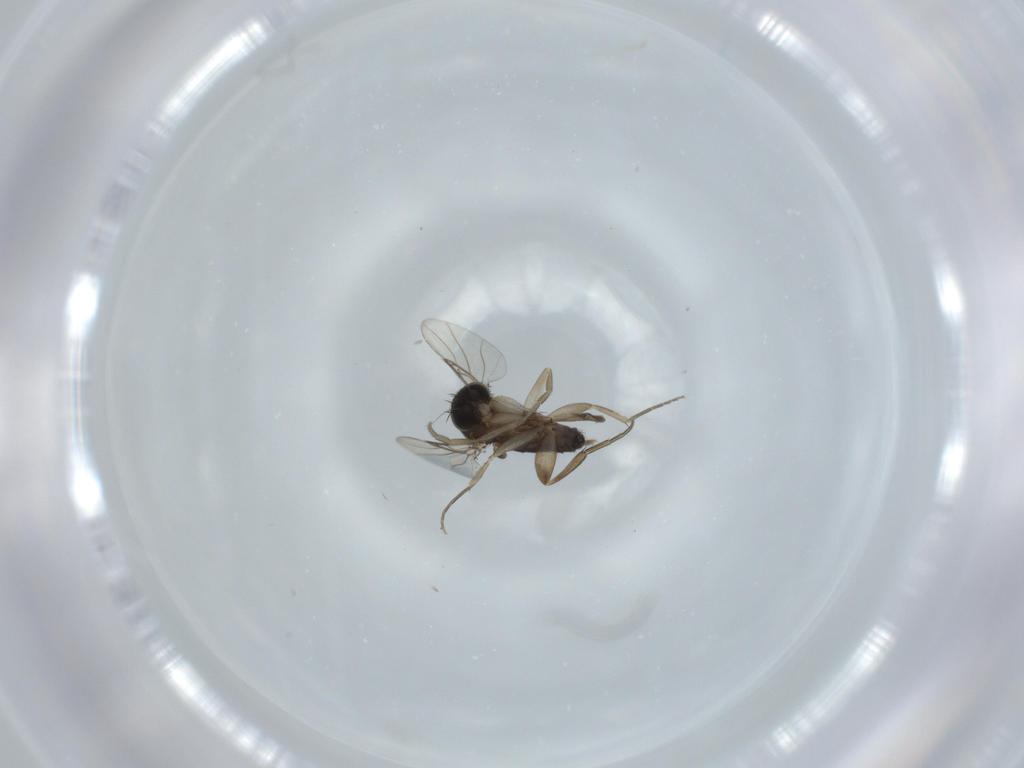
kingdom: Animalia
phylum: Arthropoda
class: Insecta
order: Diptera
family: Phoridae
